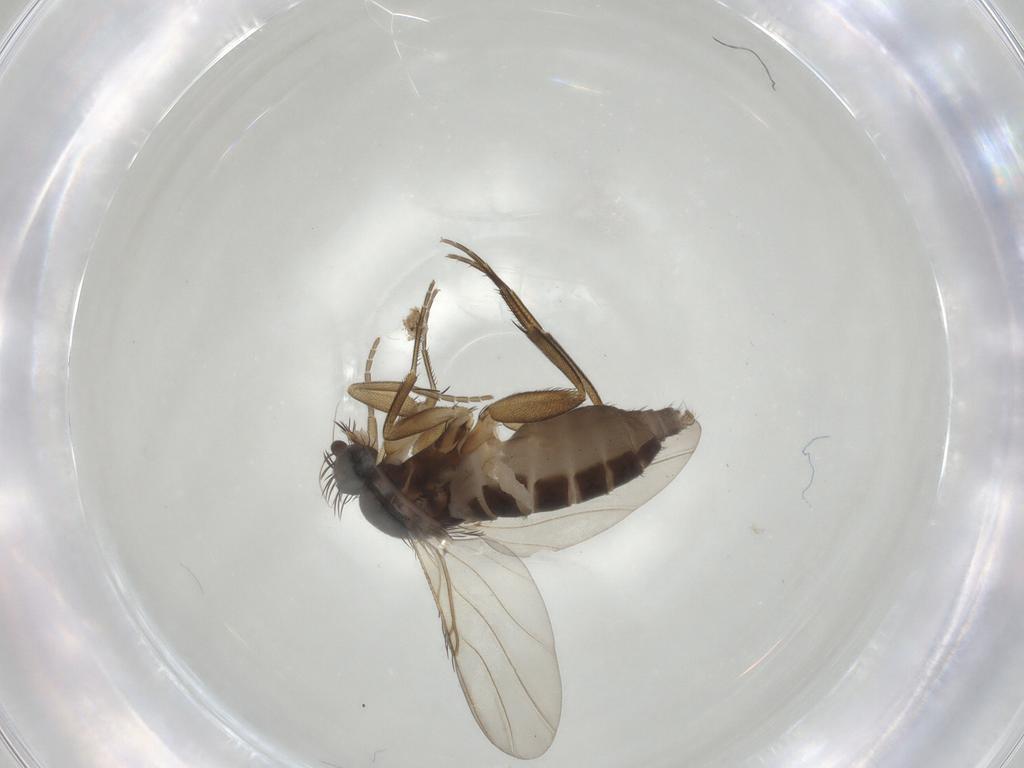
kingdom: Animalia
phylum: Arthropoda
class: Insecta
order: Diptera
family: Phoridae
